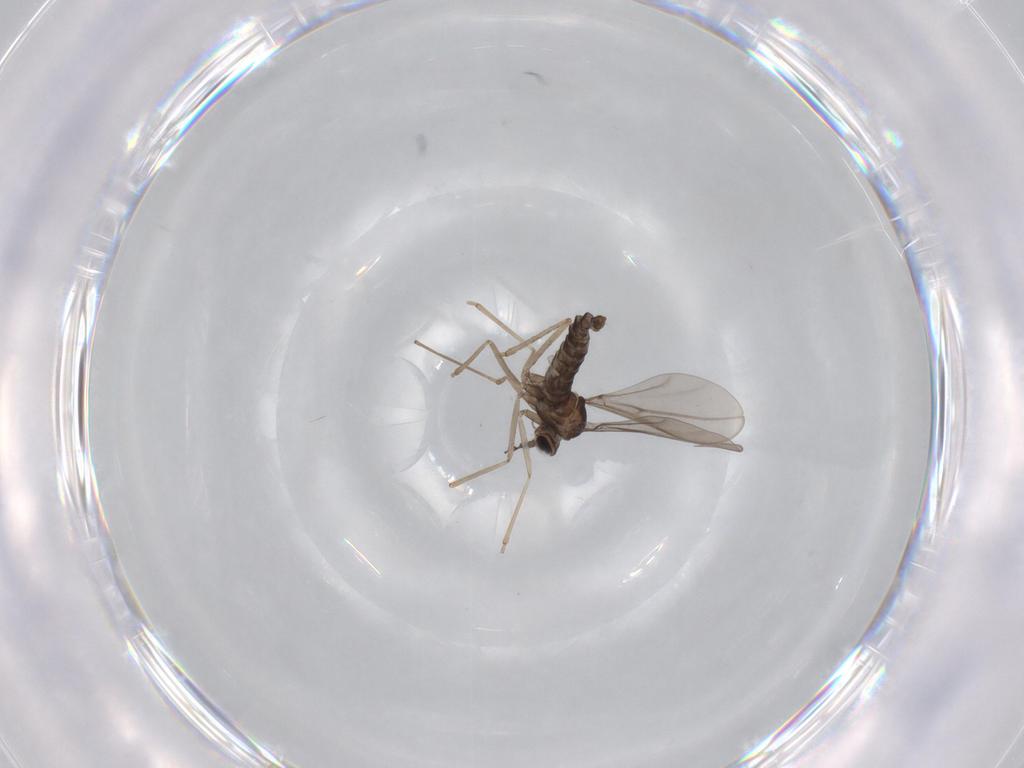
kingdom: Animalia
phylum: Arthropoda
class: Insecta
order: Diptera
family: Cecidomyiidae
